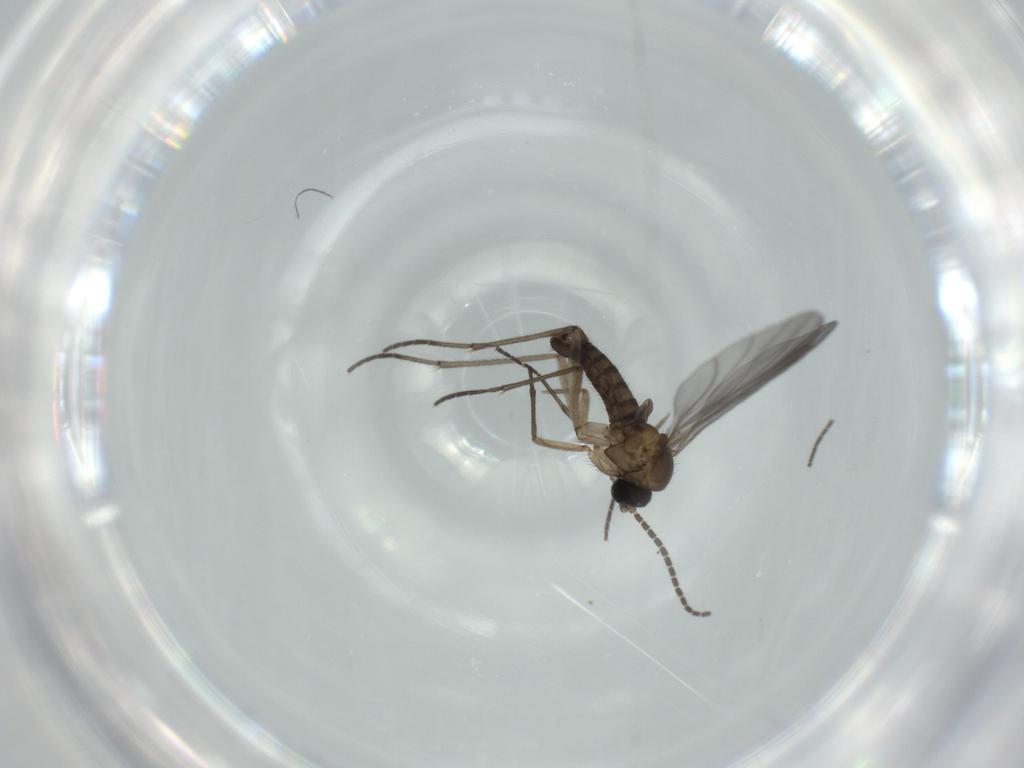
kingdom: Animalia
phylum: Arthropoda
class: Insecta
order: Diptera
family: Sciaridae
